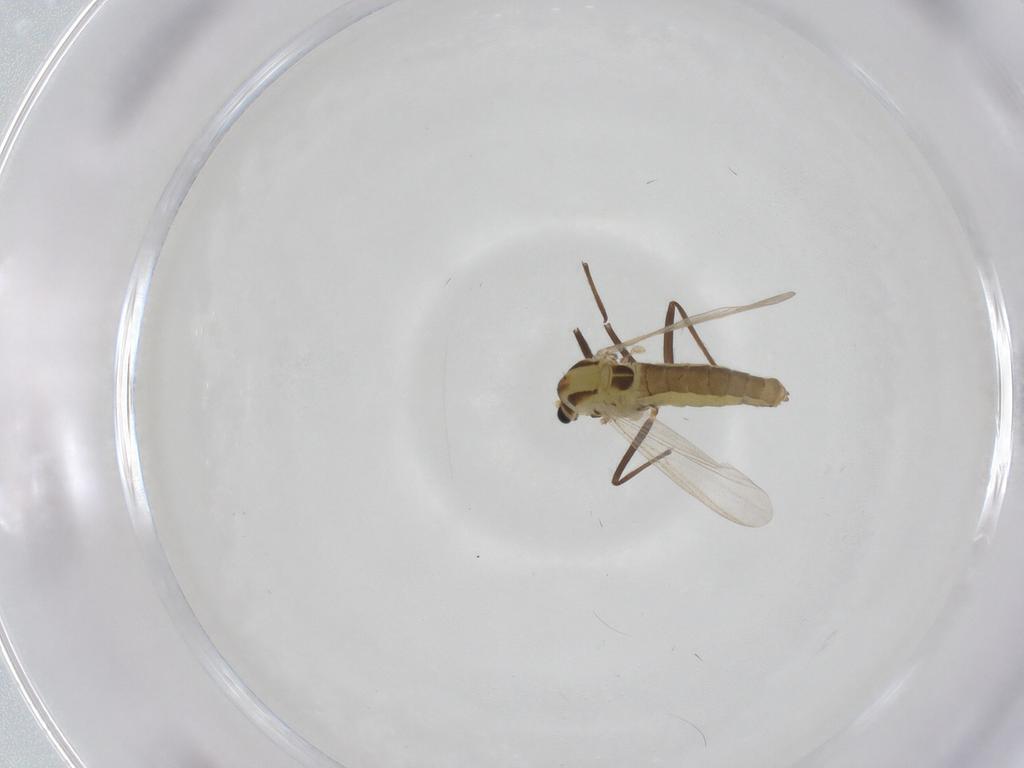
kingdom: Animalia
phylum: Arthropoda
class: Insecta
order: Diptera
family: Chironomidae
